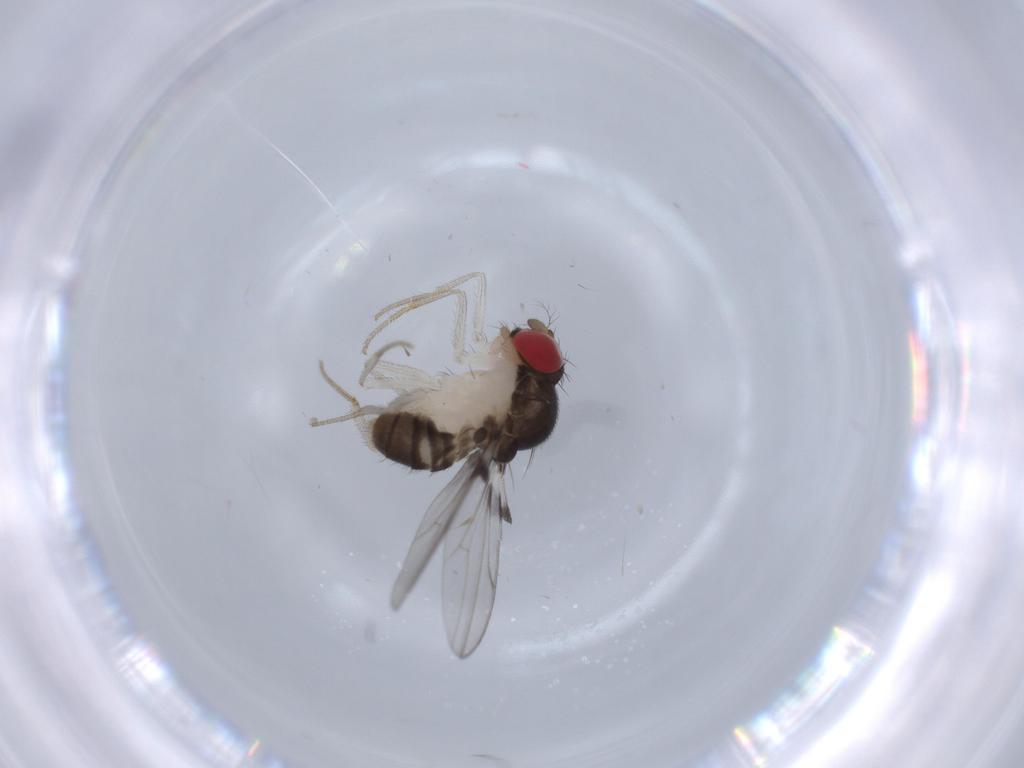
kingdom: Animalia
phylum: Arthropoda
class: Insecta
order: Diptera
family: Drosophilidae
